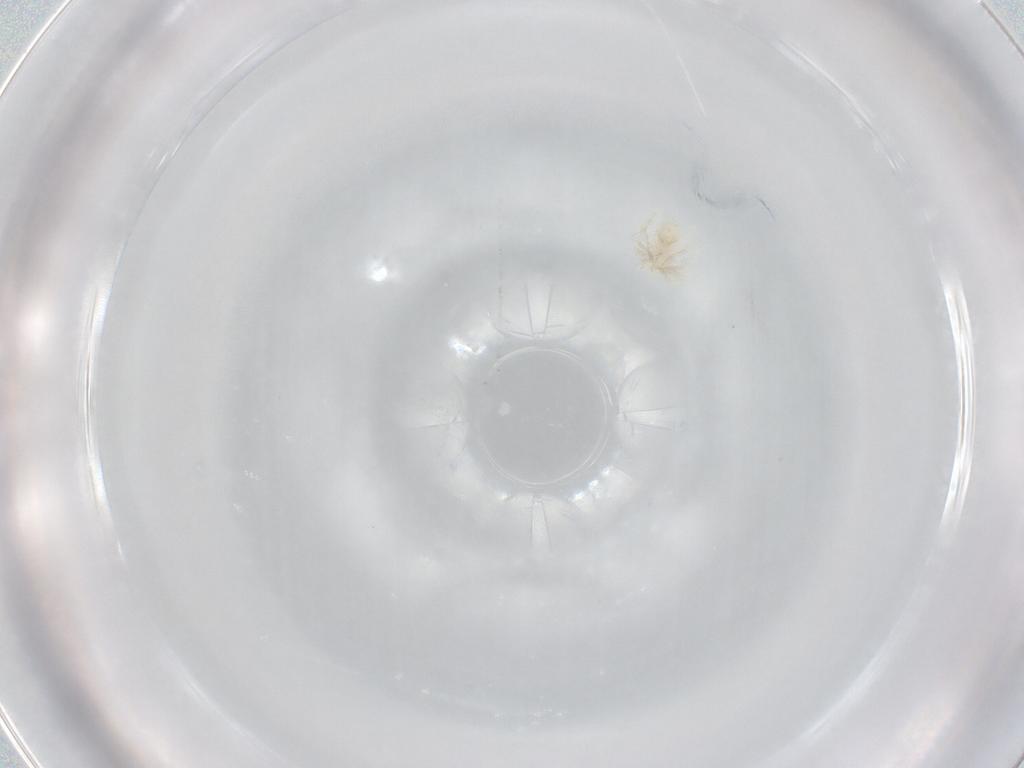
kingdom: Animalia
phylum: Arthropoda
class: Arachnida
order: Trombidiformes
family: Anystidae
